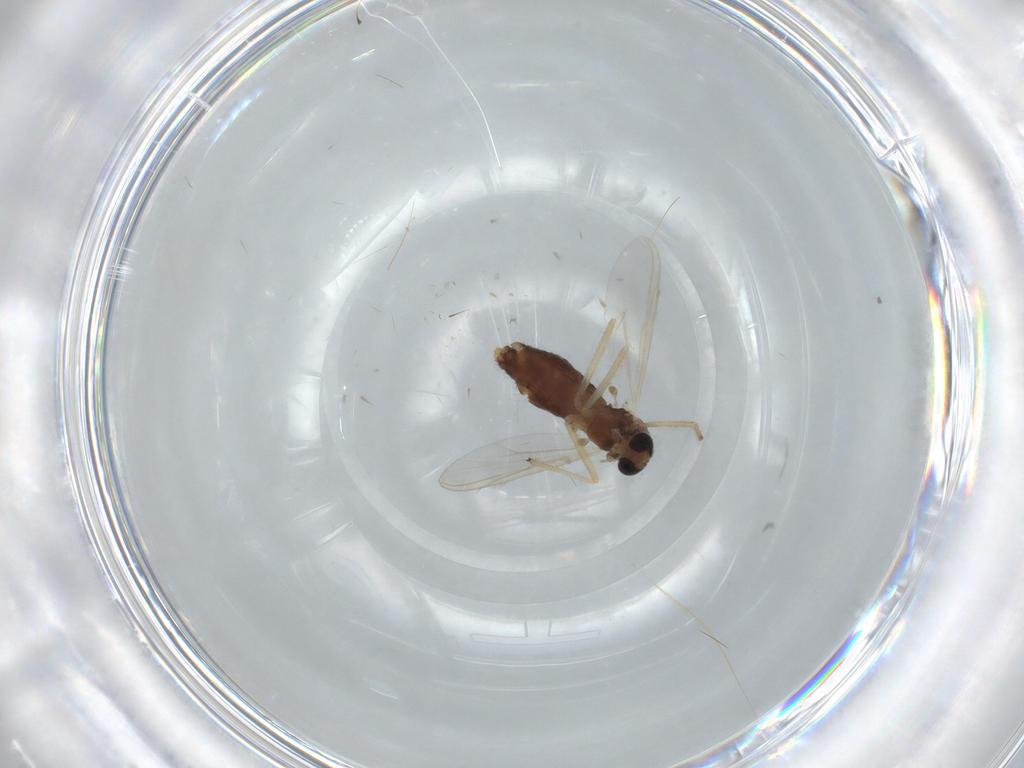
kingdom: Animalia
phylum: Arthropoda
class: Insecta
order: Diptera
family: Chironomidae
